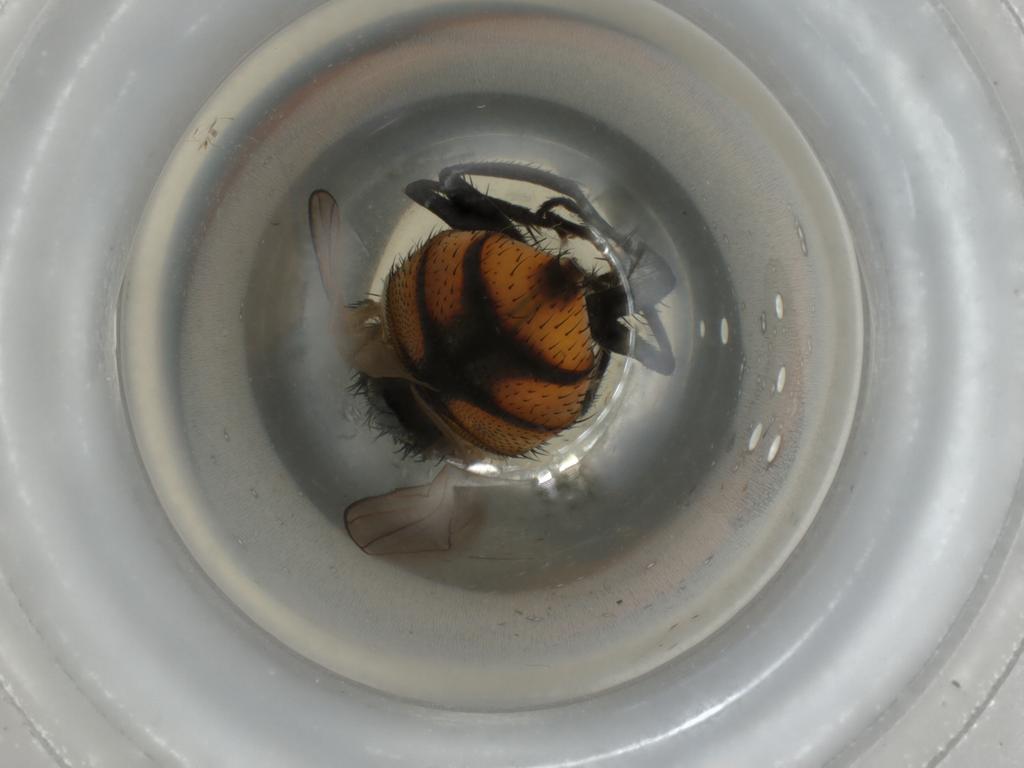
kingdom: Animalia
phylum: Arthropoda
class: Insecta
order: Diptera
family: Muscidae
